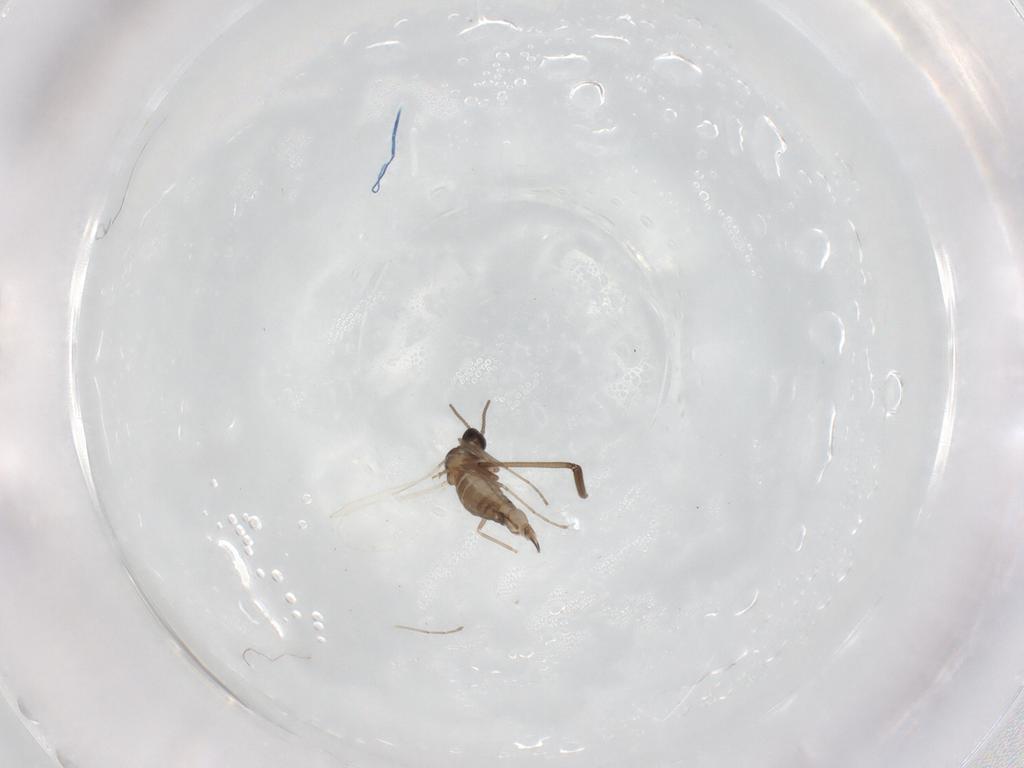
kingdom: Animalia
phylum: Arthropoda
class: Insecta
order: Diptera
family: Cecidomyiidae
